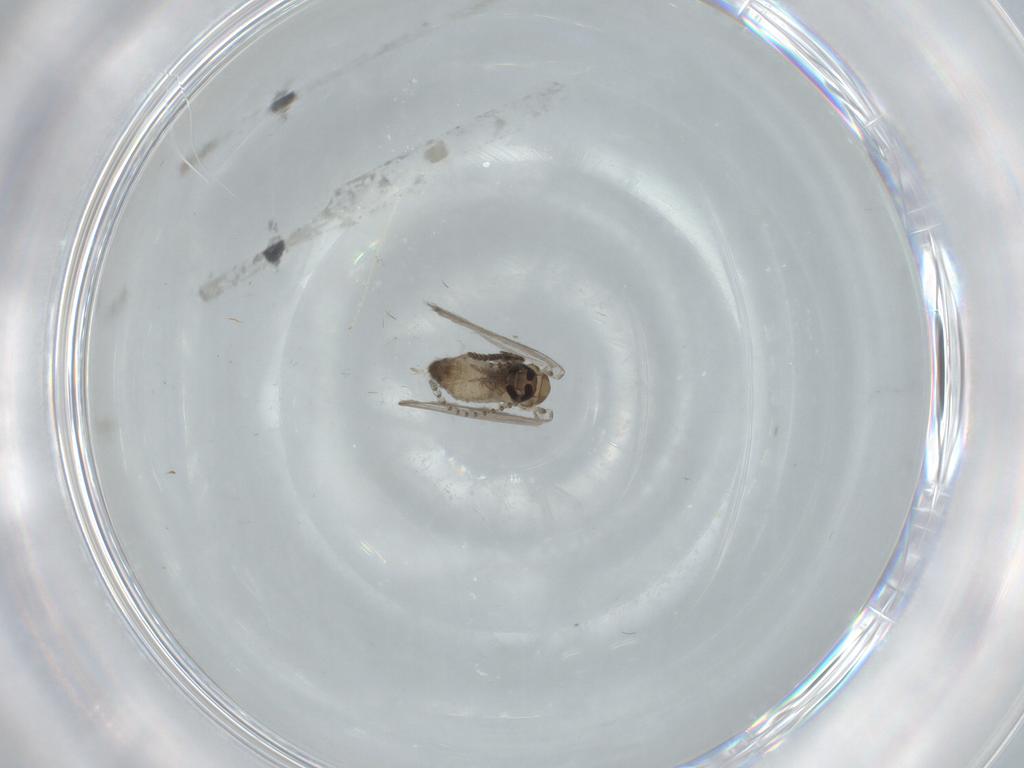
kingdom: Animalia
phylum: Arthropoda
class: Insecta
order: Diptera
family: Psychodidae
